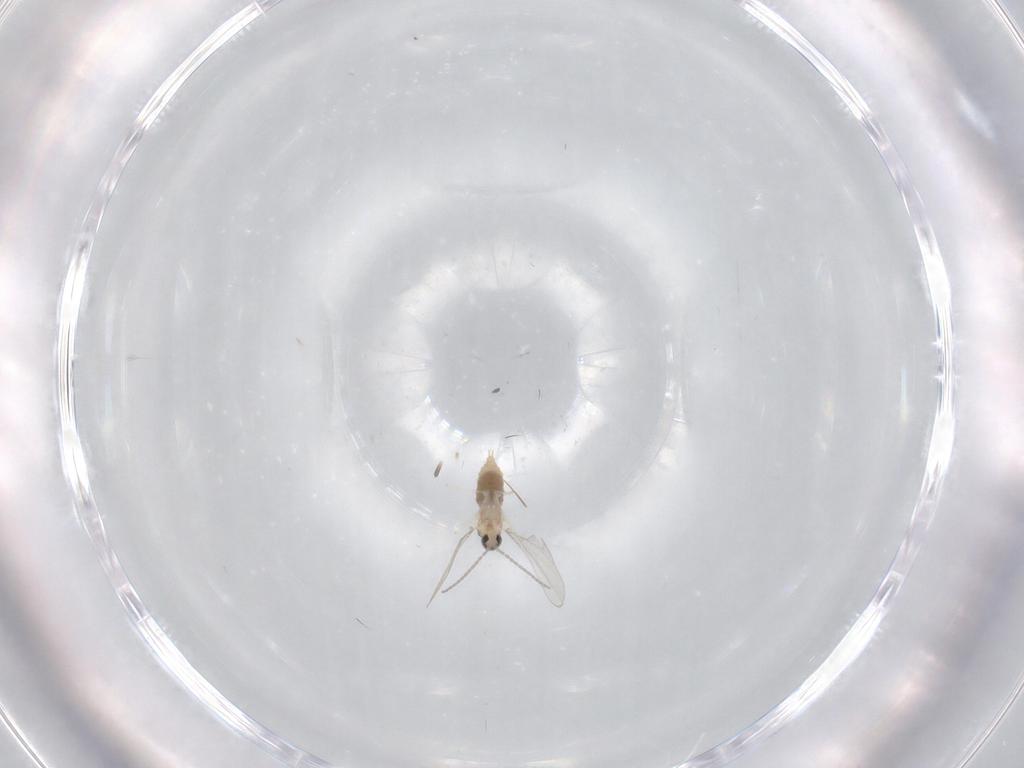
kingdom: Animalia
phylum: Arthropoda
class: Insecta
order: Diptera
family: Cecidomyiidae
